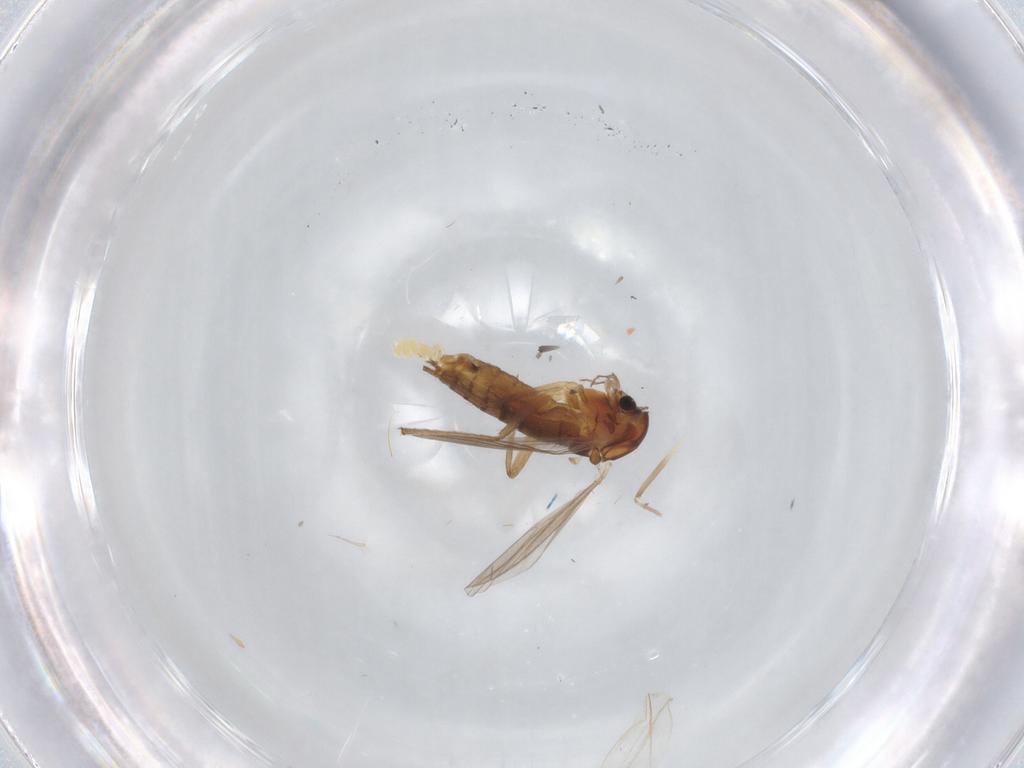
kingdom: Animalia
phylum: Arthropoda
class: Insecta
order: Diptera
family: Chironomidae
